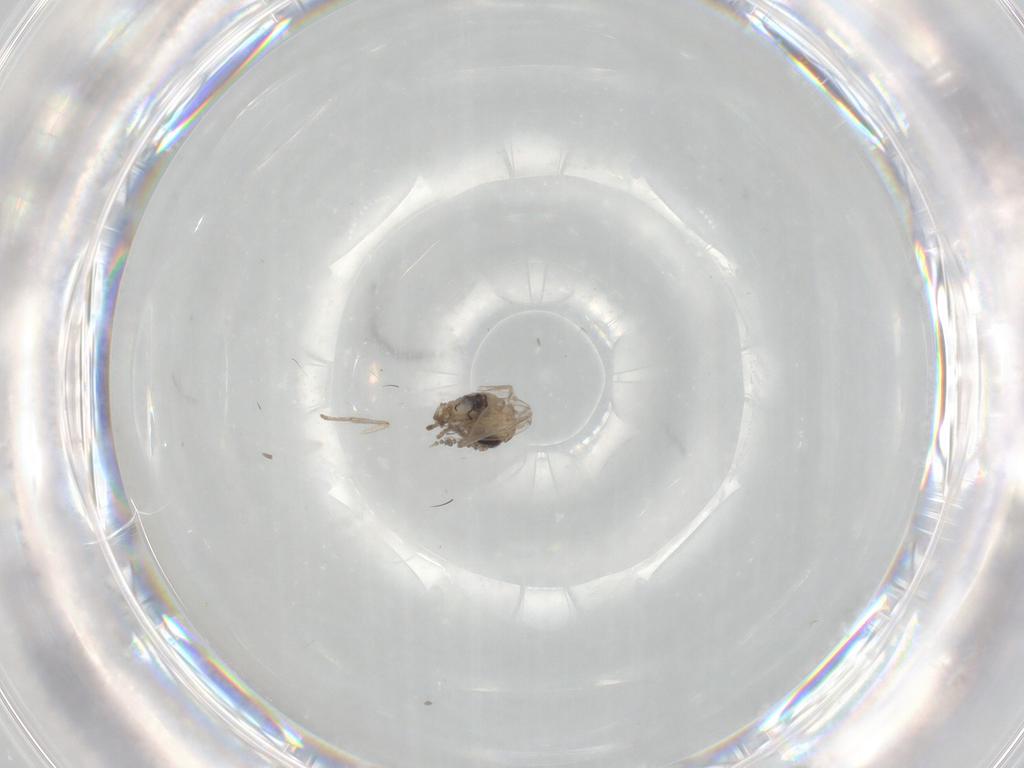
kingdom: Animalia
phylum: Arthropoda
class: Insecta
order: Diptera
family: Psychodidae
